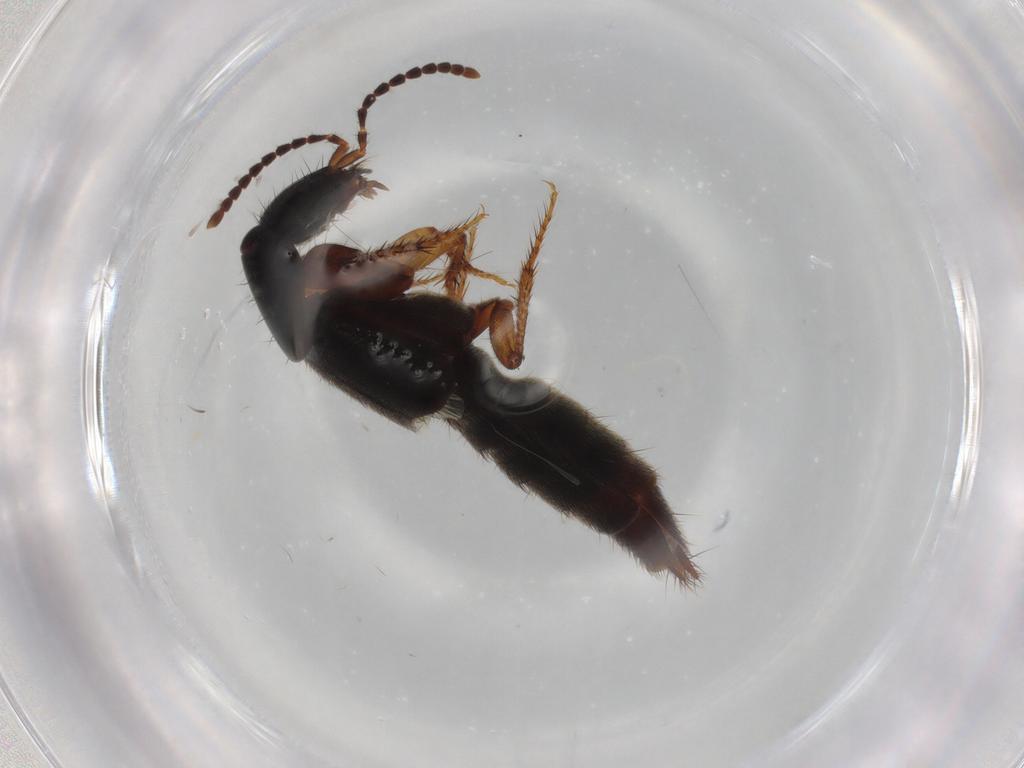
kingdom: Animalia
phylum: Arthropoda
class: Insecta
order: Coleoptera
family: Staphylinidae
